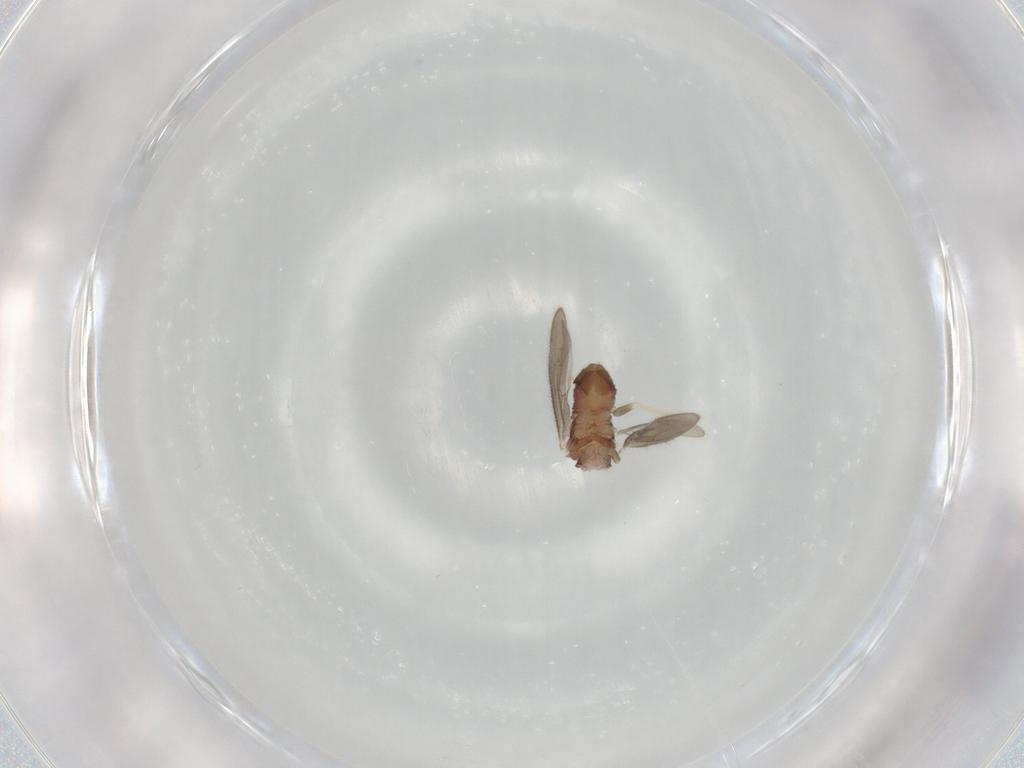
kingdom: Animalia
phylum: Arthropoda
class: Insecta
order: Psocodea
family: Archipsocidae
